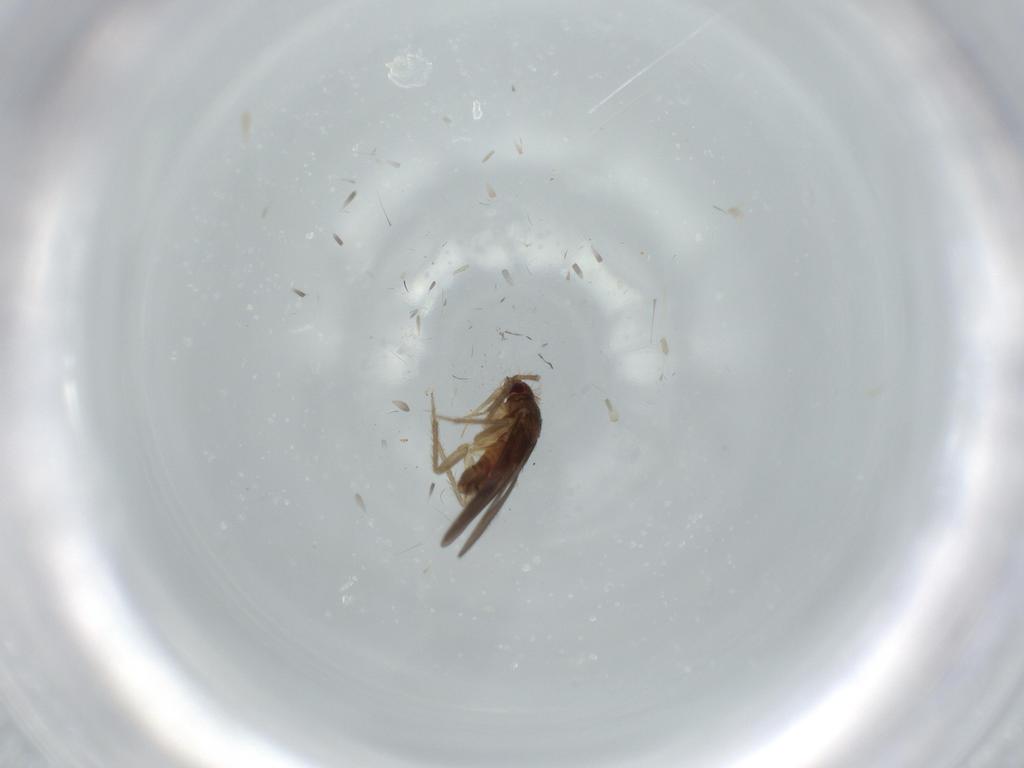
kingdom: Animalia
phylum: Arthropoda
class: Insecta
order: Hemiptera
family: Ceratocombidae
